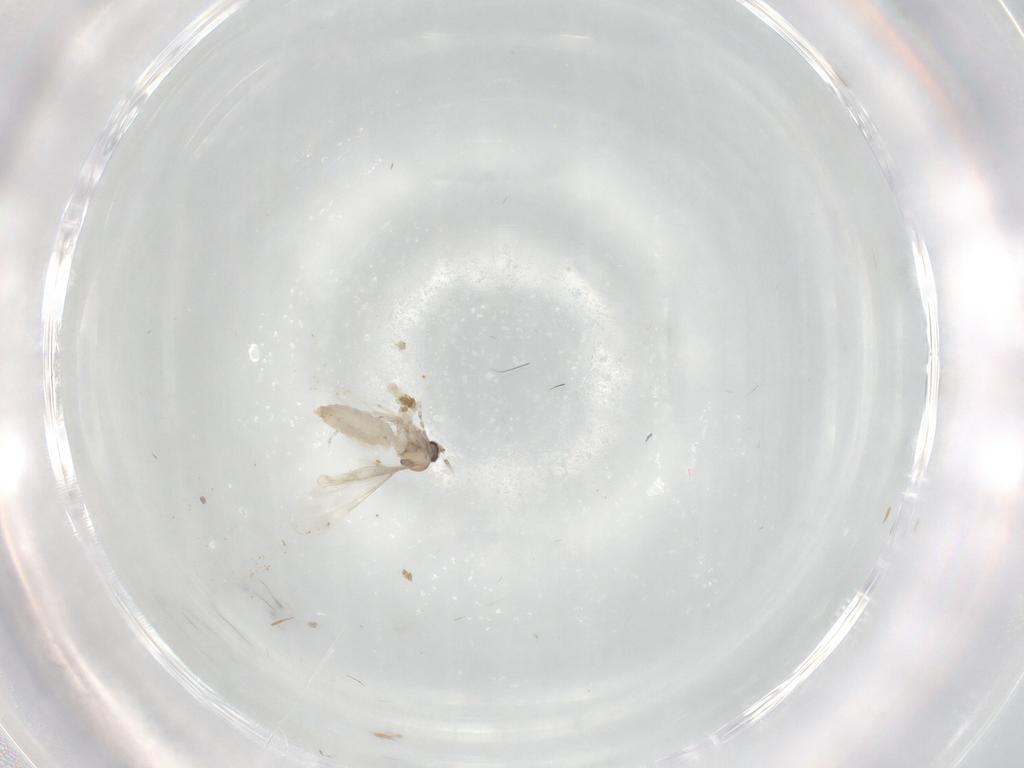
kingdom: Animalia
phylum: Arthropoda
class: Insecta
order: Diptera
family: Cecidomyiidae
